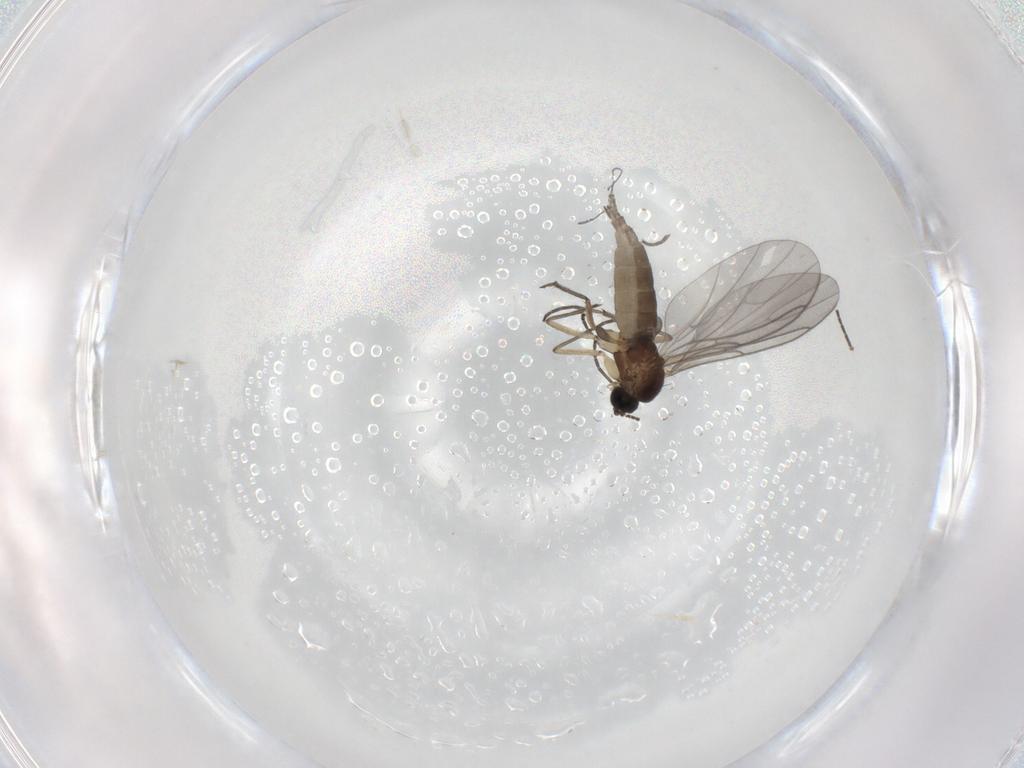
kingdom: Animalia
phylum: Arthropoda
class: Insecta
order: Diptera
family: Sciaridae
